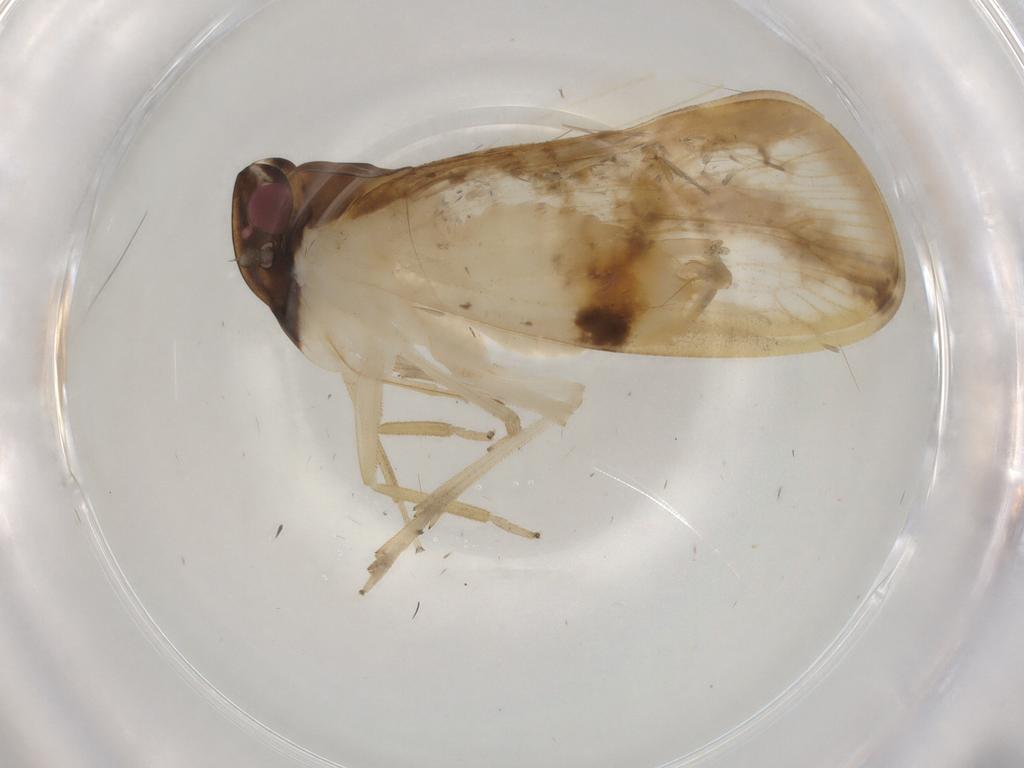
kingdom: Animalia
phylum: Arthropoda
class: Insecta
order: Hemiptera
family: Cixiidae
